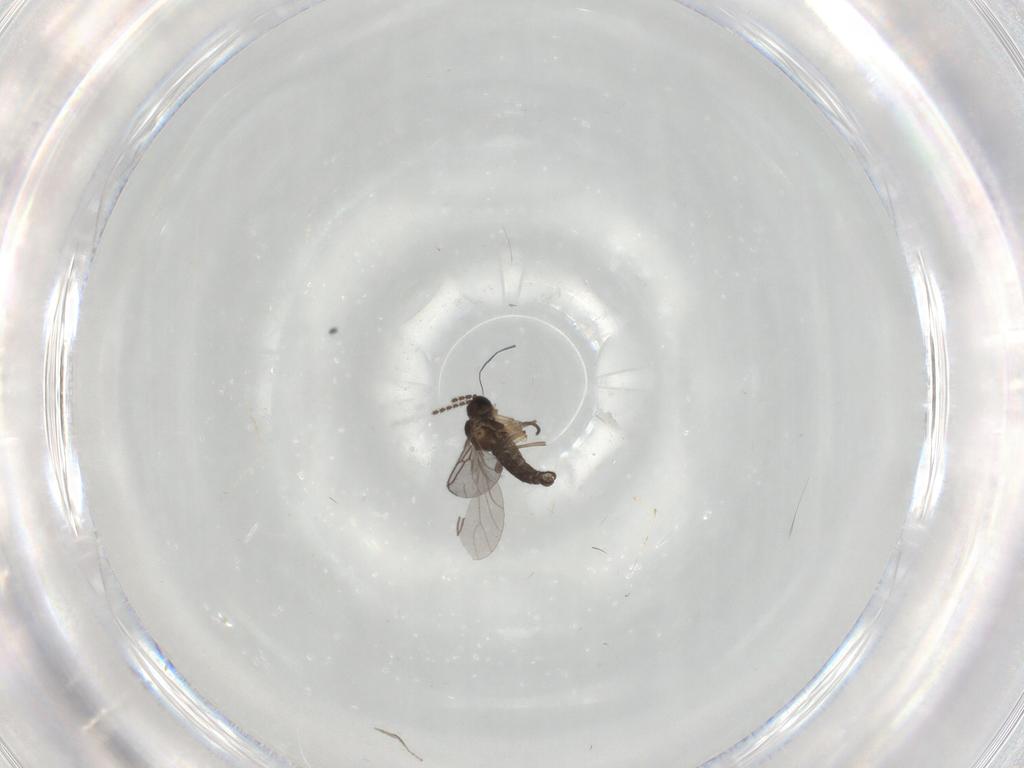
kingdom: Animalia
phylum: Arthropoda
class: Insecta
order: Diptera
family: Sciaridae
